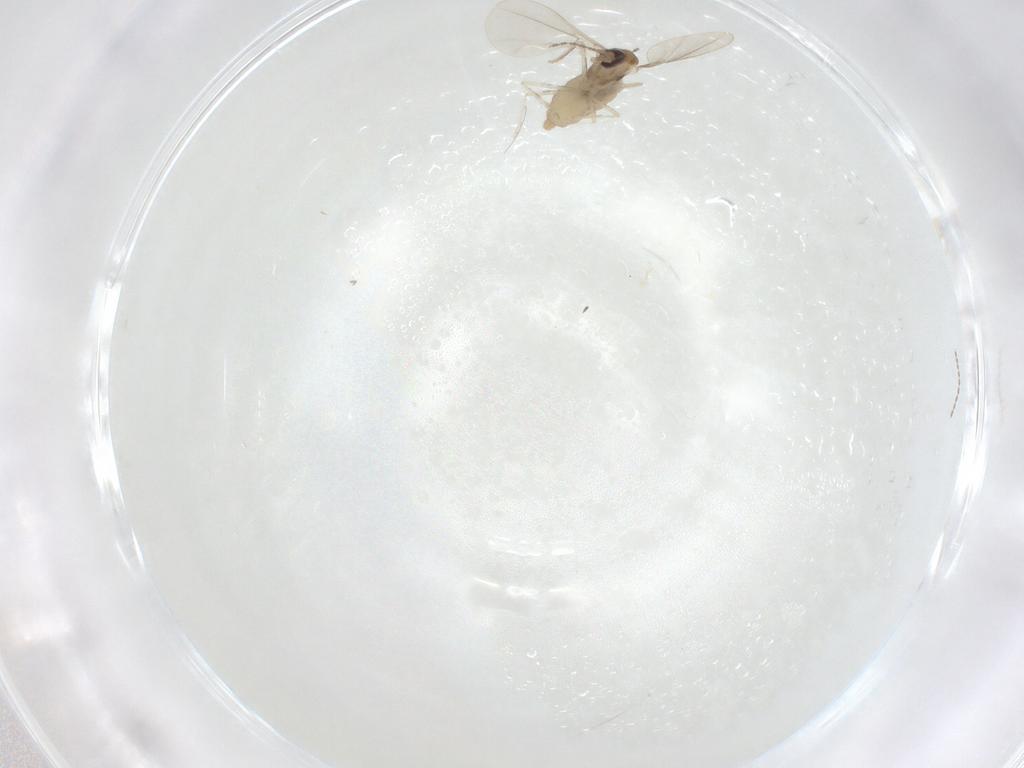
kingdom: Animalia
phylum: Arthropoda
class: Insecta
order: Diptera
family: Cecidomyiidae
